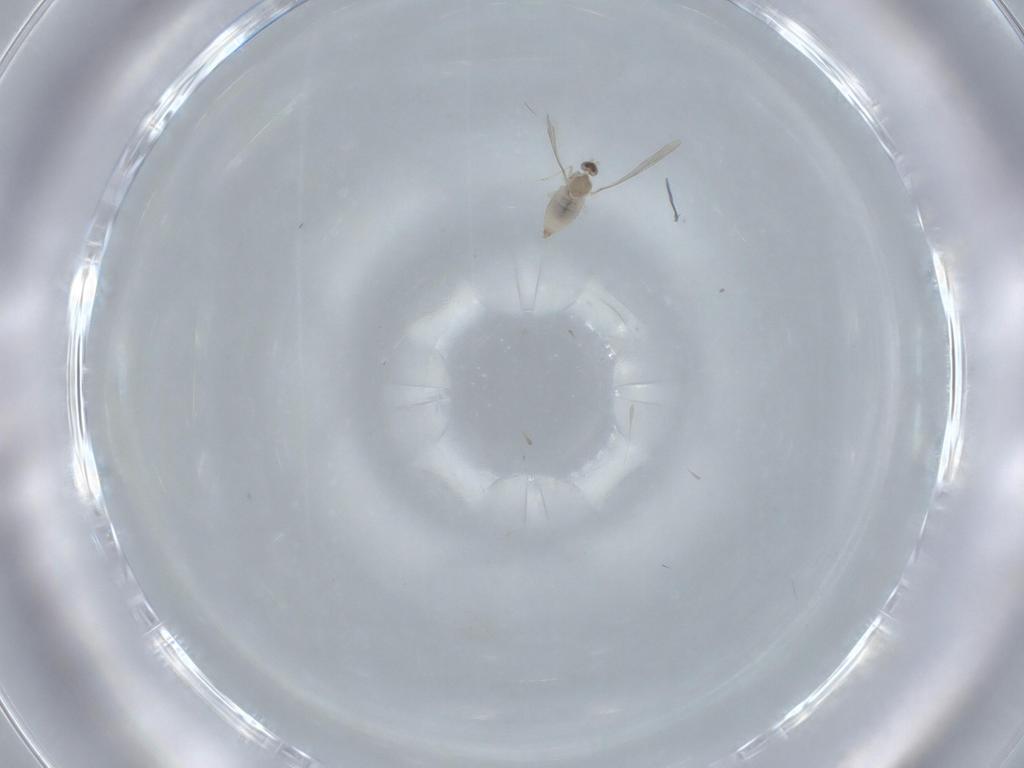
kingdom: Animalia
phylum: Arthropoda
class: Insecta
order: Diptera
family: Cecidomyiidae
